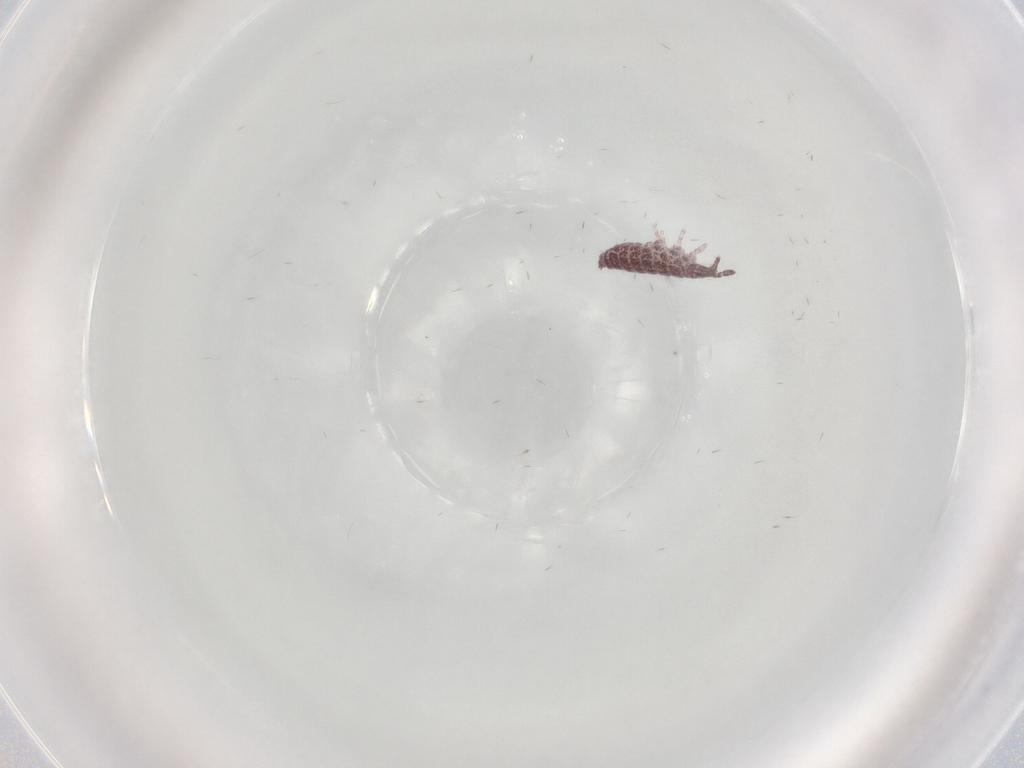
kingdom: Animalia
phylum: Arthropoda
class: Collembola
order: Poduromorpha
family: Hypogastruridae
